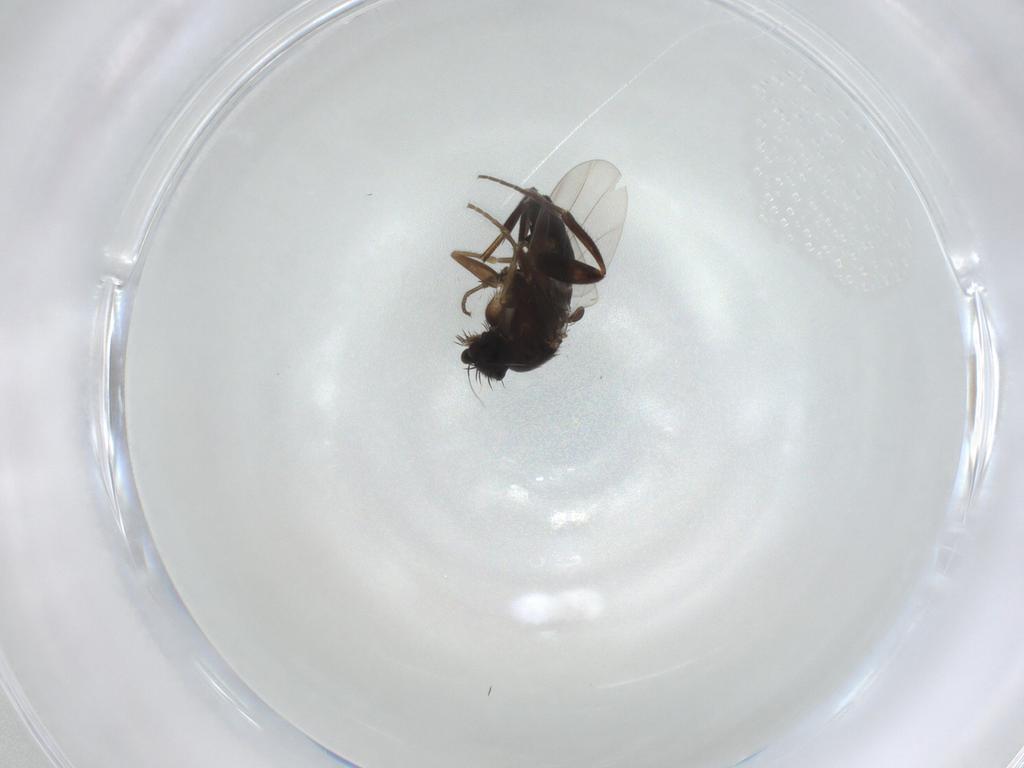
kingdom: Animalia
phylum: Arthropoda
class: Insecta
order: Diptera
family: Phoridae
